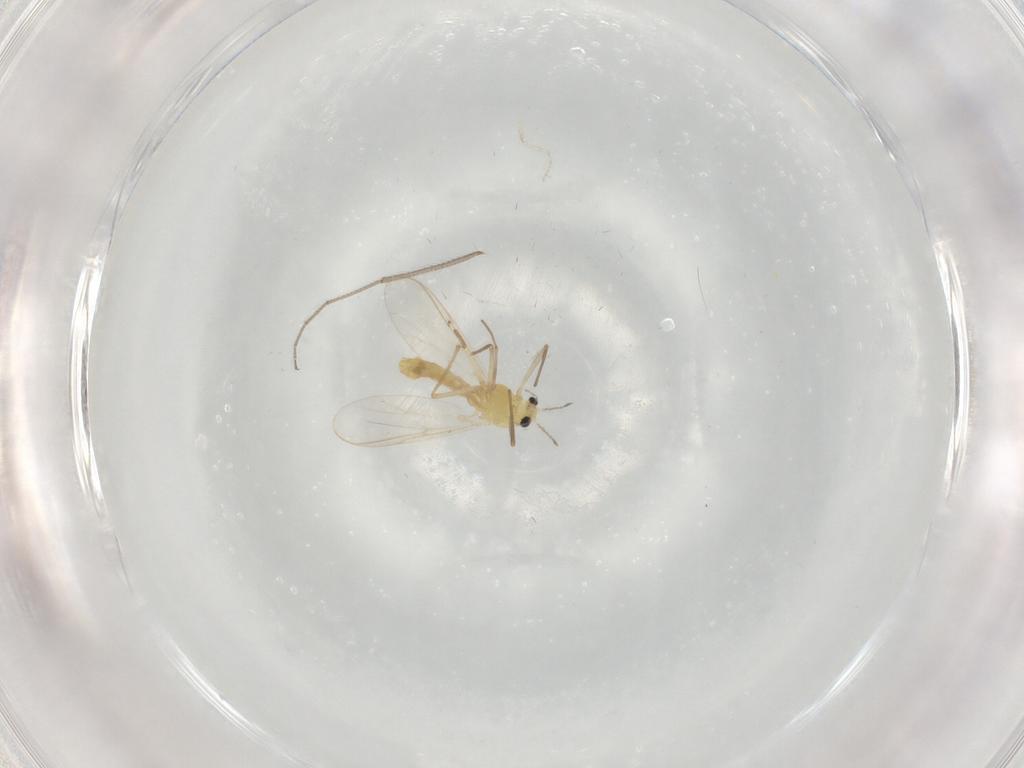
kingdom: Animalia
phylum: Arthropoda
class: Insecta
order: Diptera
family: Chironomidae
